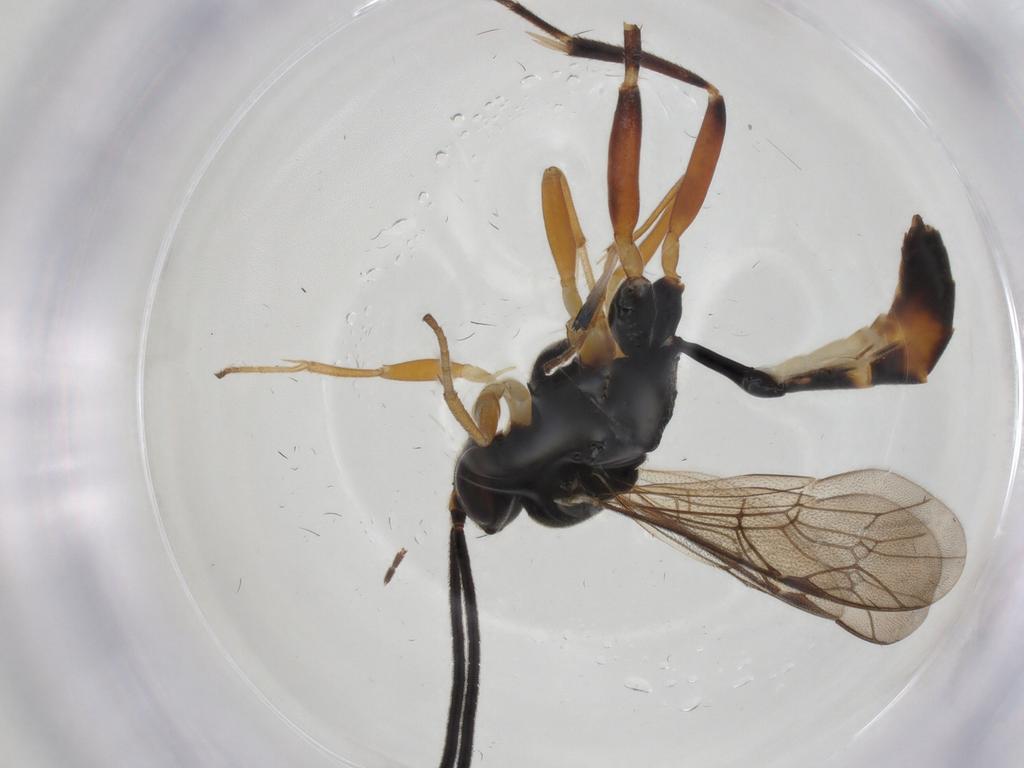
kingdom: Animalia
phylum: Arthropoda
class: Insecta
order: Hymenoptera
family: Ichneumonidae
